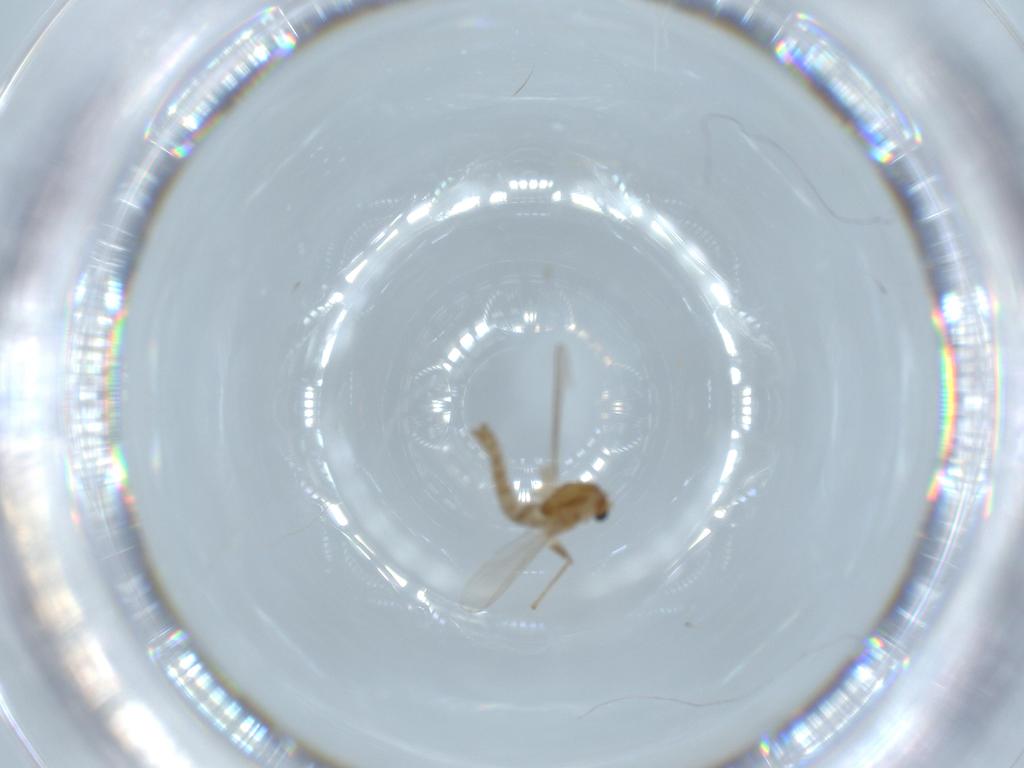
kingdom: Animalia
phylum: Arthropoda
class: Insecta
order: Diptera
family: Chironomidae
